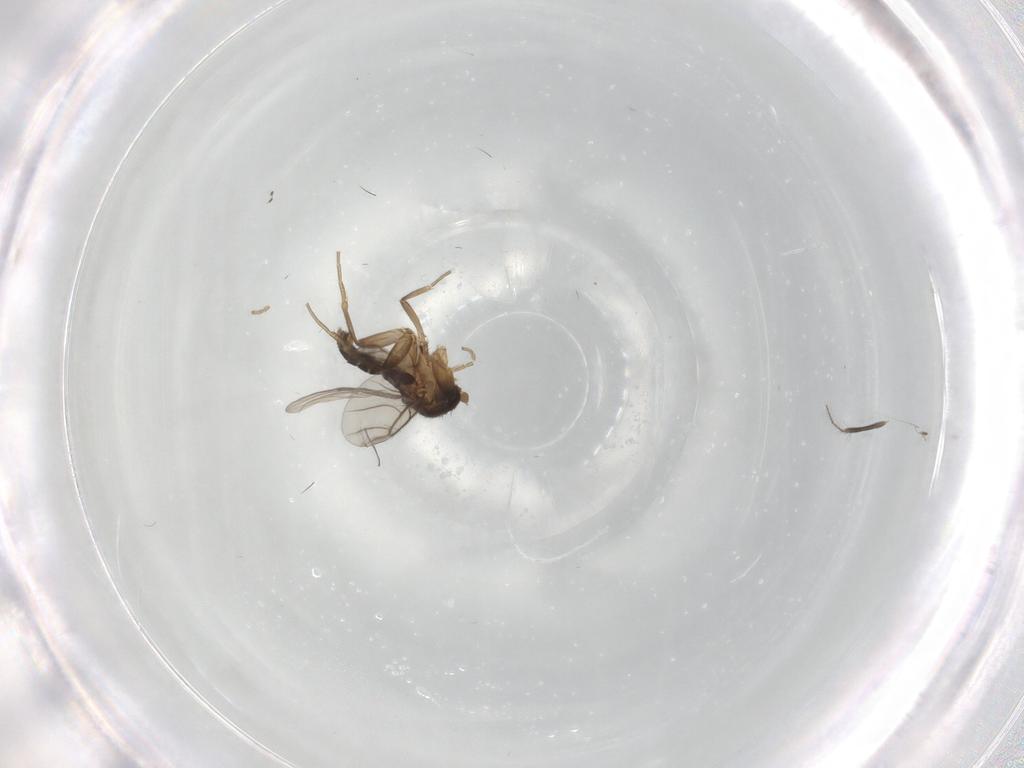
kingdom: Animalia
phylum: Arthropoda
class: Insecta
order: Diptera
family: Phoridae
